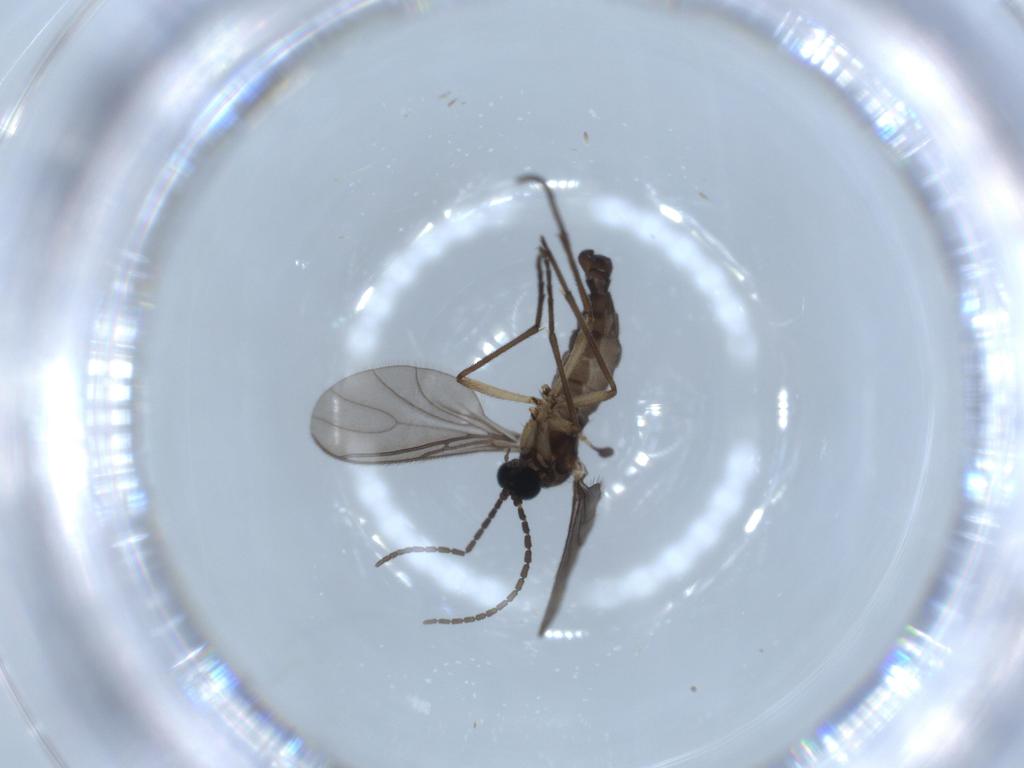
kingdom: Animalia
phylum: Arthropoda
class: Insecta
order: Diptera
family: Sciaridae
